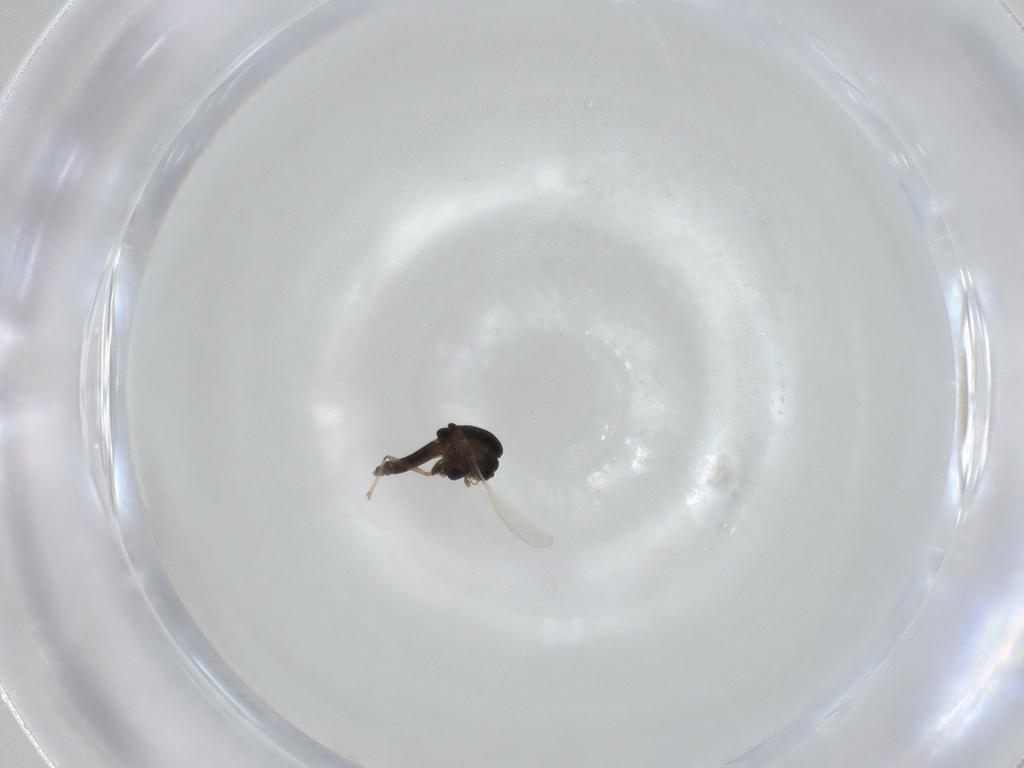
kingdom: Animalia
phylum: Arthropoda
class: Insecta
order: Diptera
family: Chironomidae
